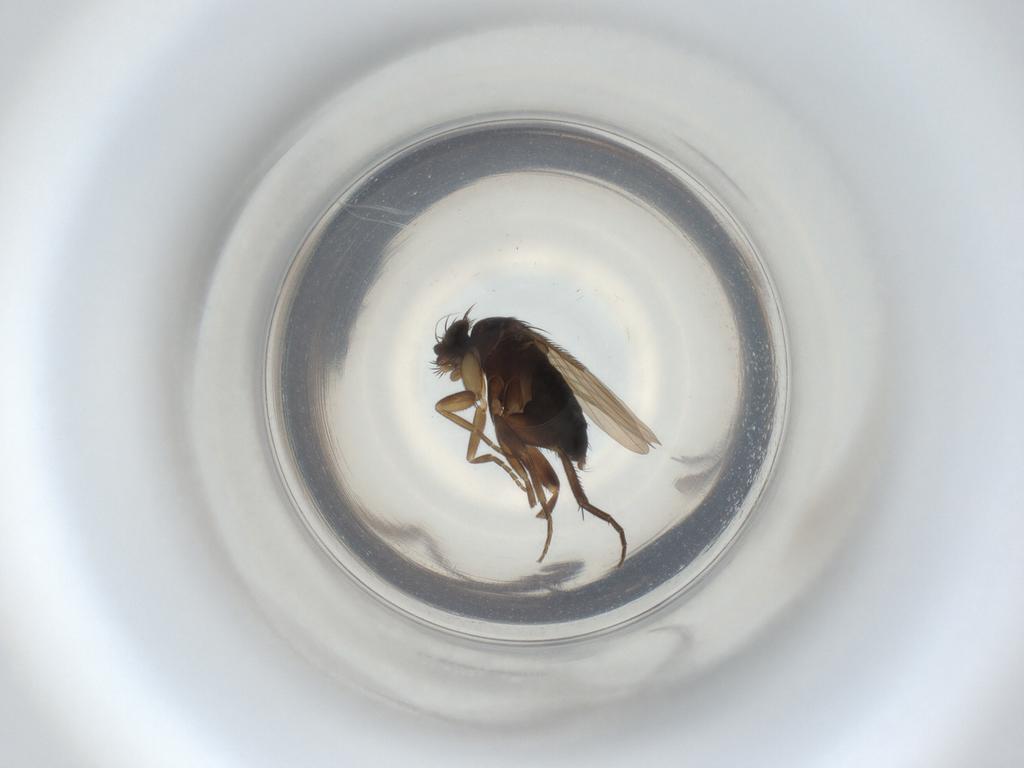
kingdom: Animalia
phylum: Arthropoda
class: Insecta
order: Diptera
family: Phoridae
